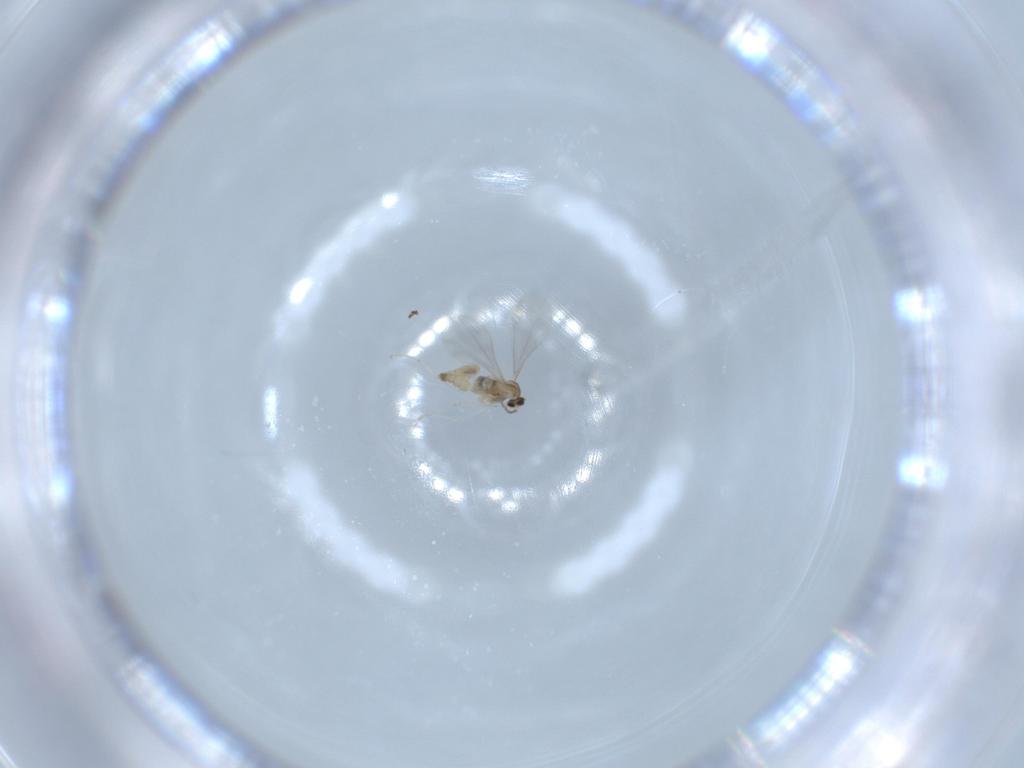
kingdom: Animalia
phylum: Arthropoda
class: Insecta
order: Diptera
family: Cecidomyiidae
